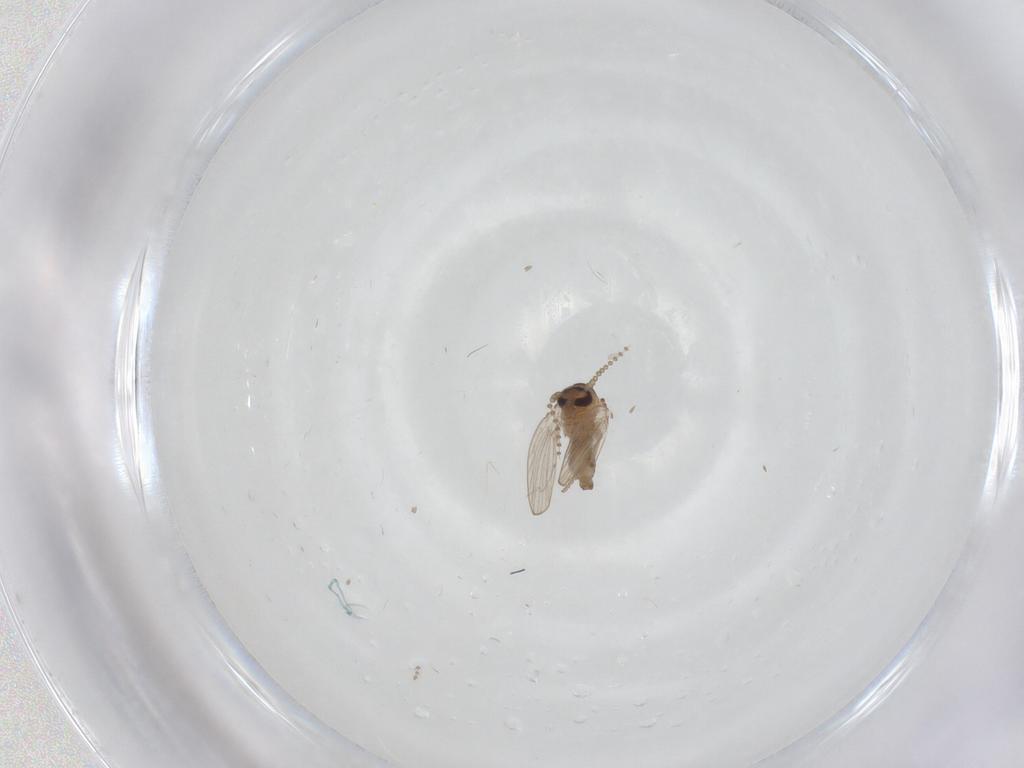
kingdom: Animalia
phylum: Arthropoda
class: Insecta
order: Diptera
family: Psychodidae
